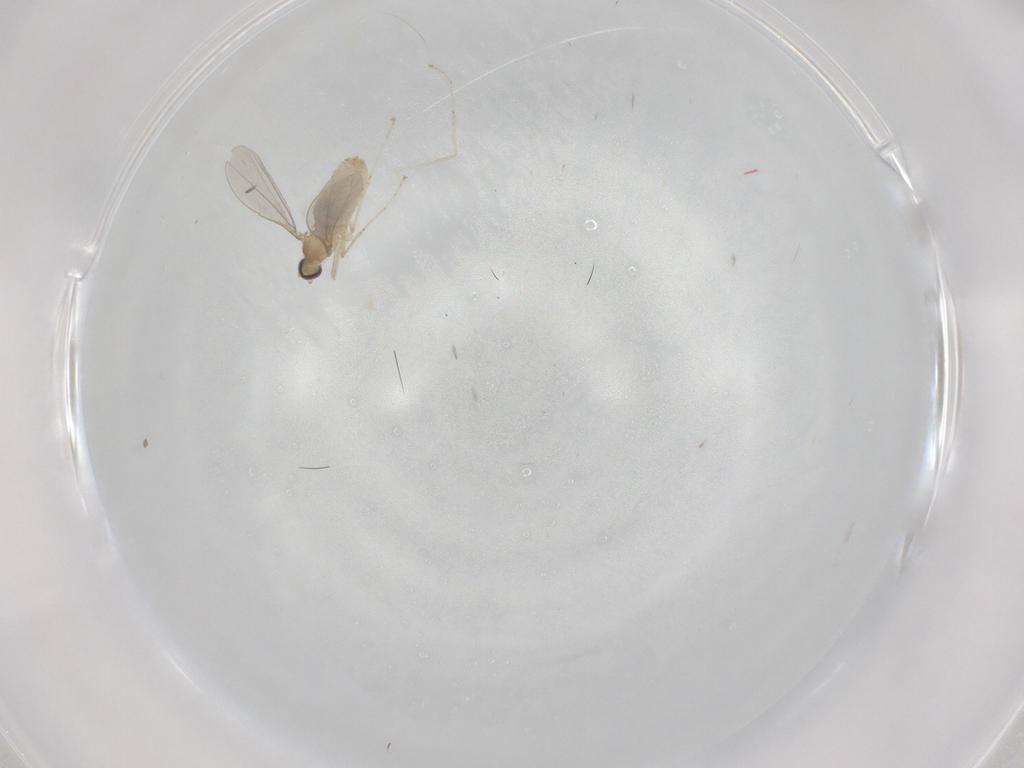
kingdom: Animalia
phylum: Arthropoda
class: Insecta
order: Diptera
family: Cecidomyiidae
